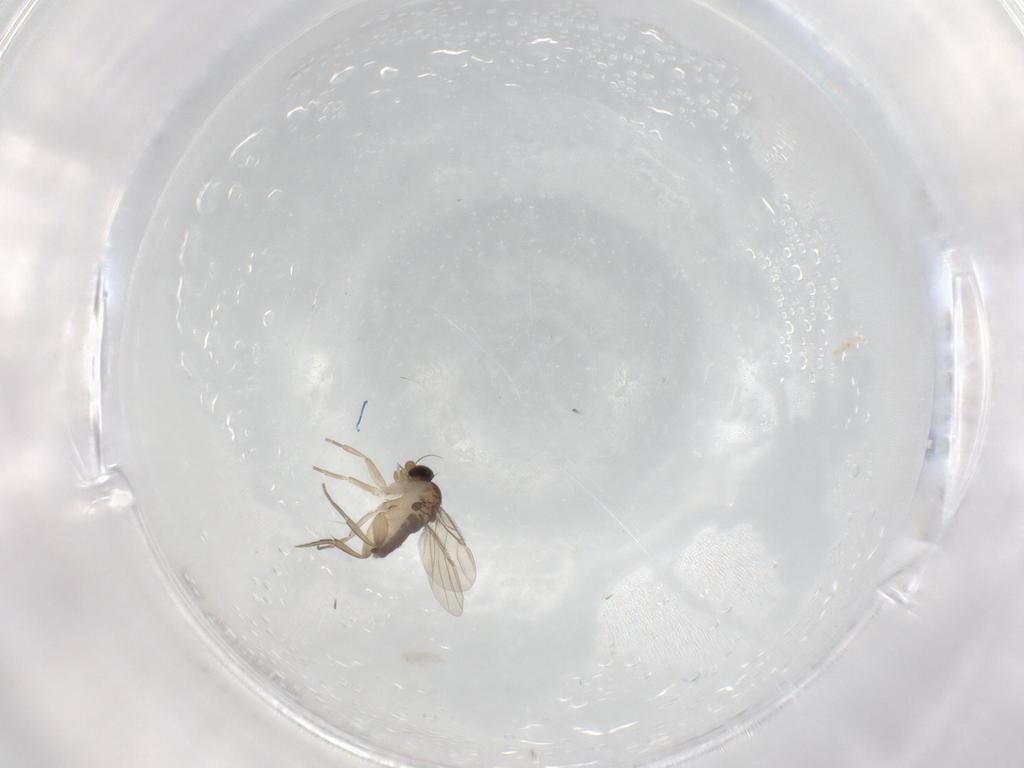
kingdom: Animalia
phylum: Arthropoda
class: Insecta
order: Diptera
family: Phoridae
